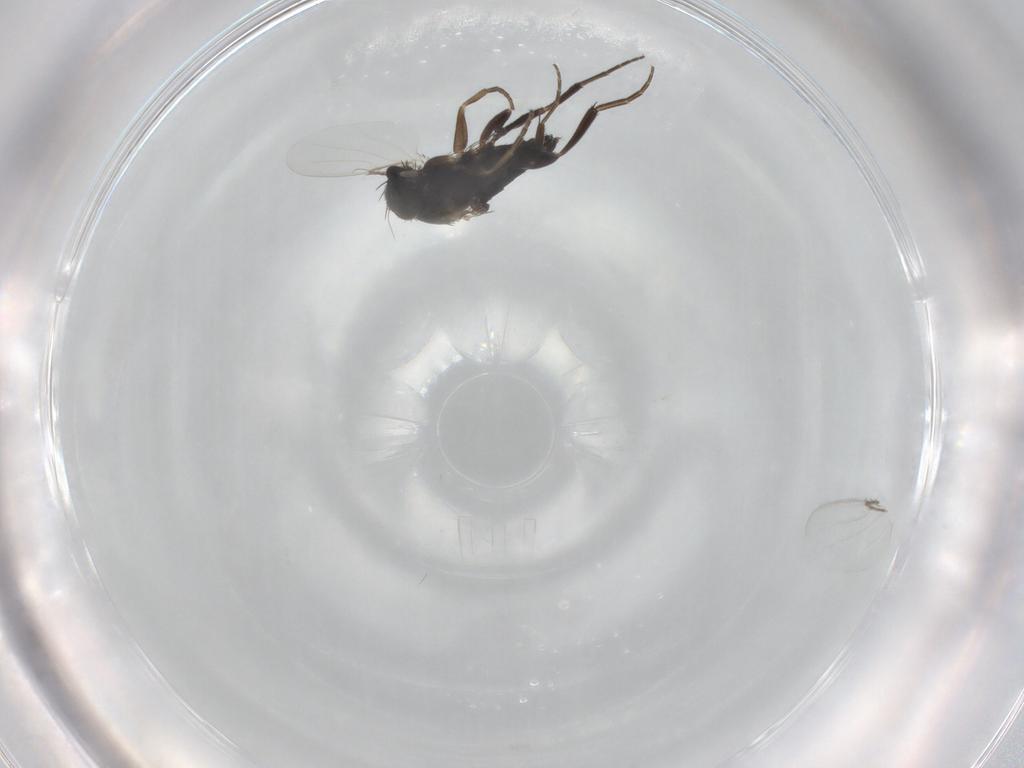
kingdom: Animalia
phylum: Arthropoda
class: Insecta
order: Diptera
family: Phoridae
